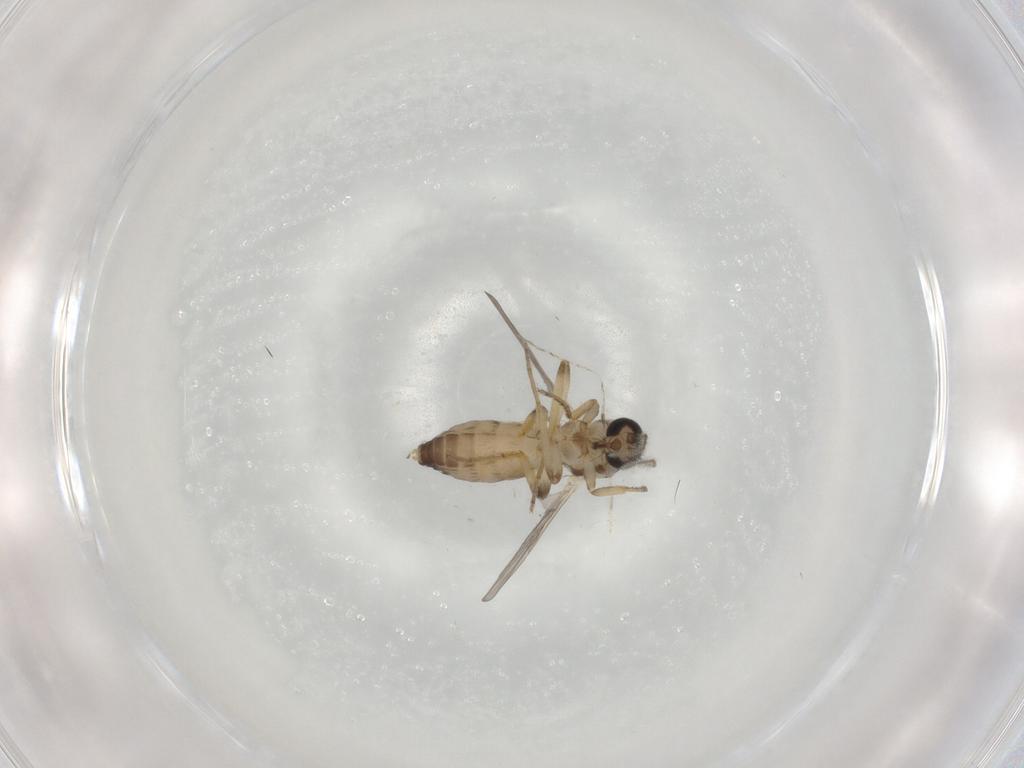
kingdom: Animalia
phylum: Arthropoda
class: Insecta
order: Diptera
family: Ceratopogonidae
